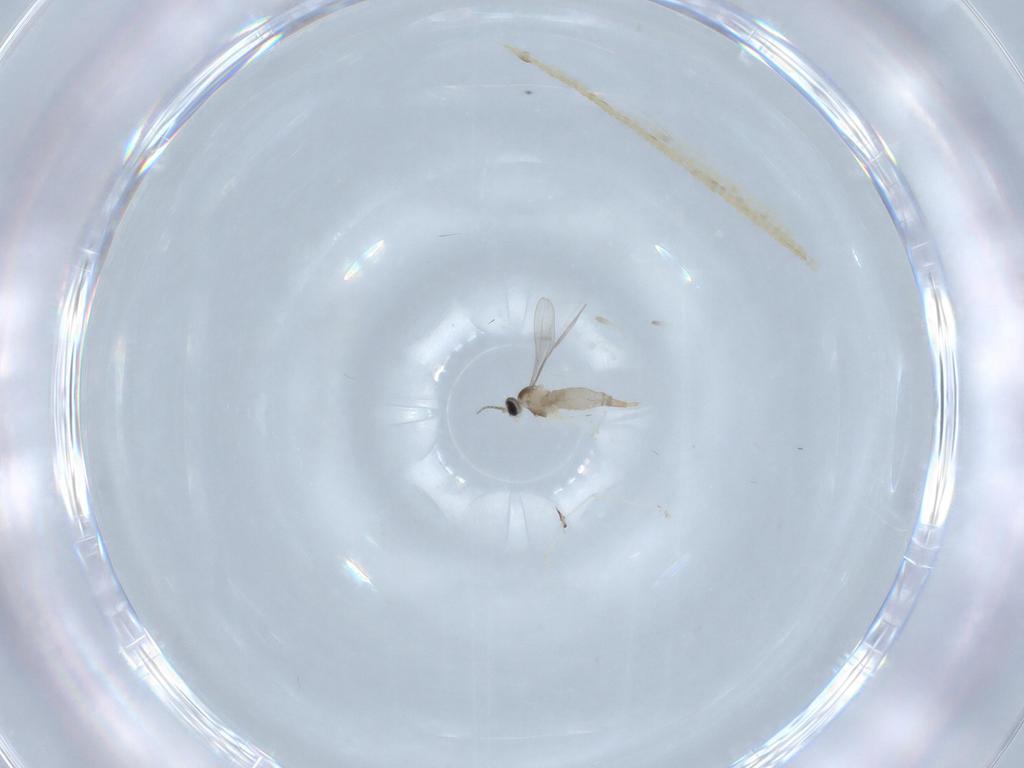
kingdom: Animalia
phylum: Arthropoda
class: Insecta
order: Diptera
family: Cecidomyiidae
